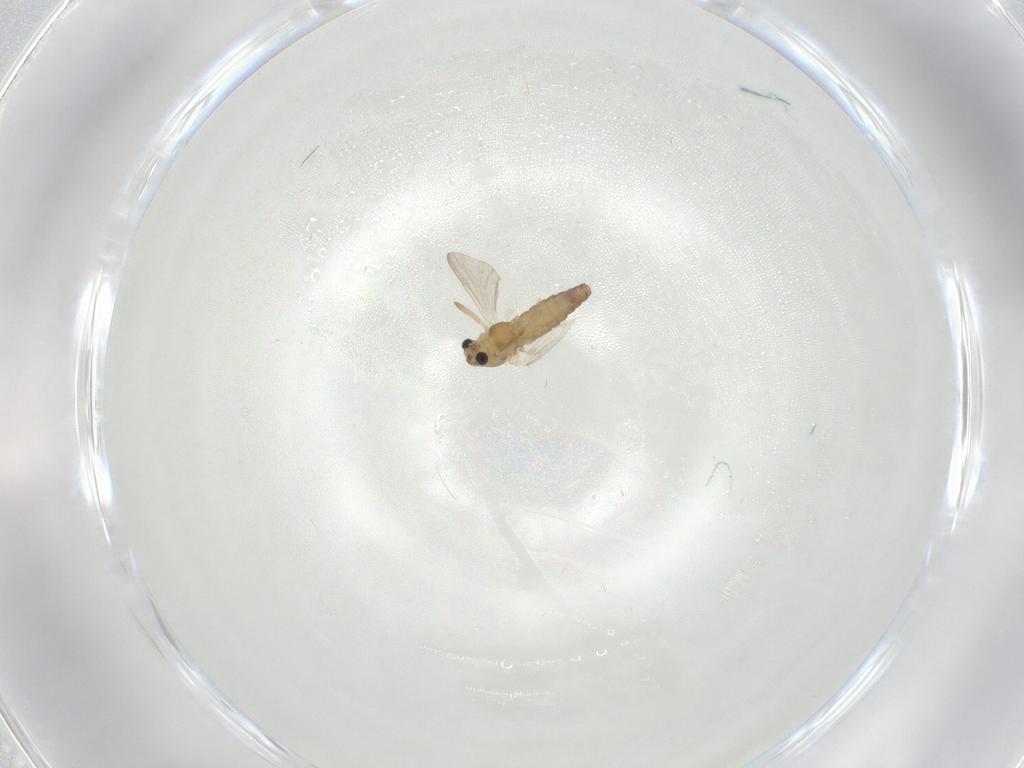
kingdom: Animalia
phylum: Arthropoda
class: Insecta
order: Diptera
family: Chironomidae
